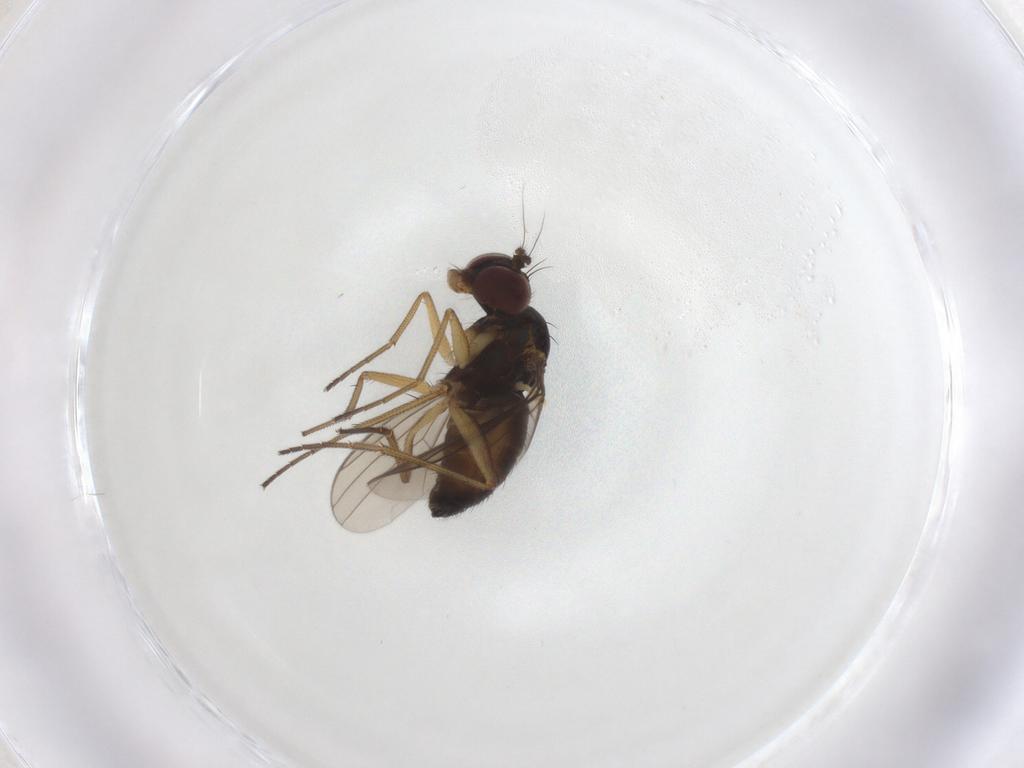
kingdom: Animalia
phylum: Arthropoda
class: Insecta
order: Diptera
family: Dolichopodidae
